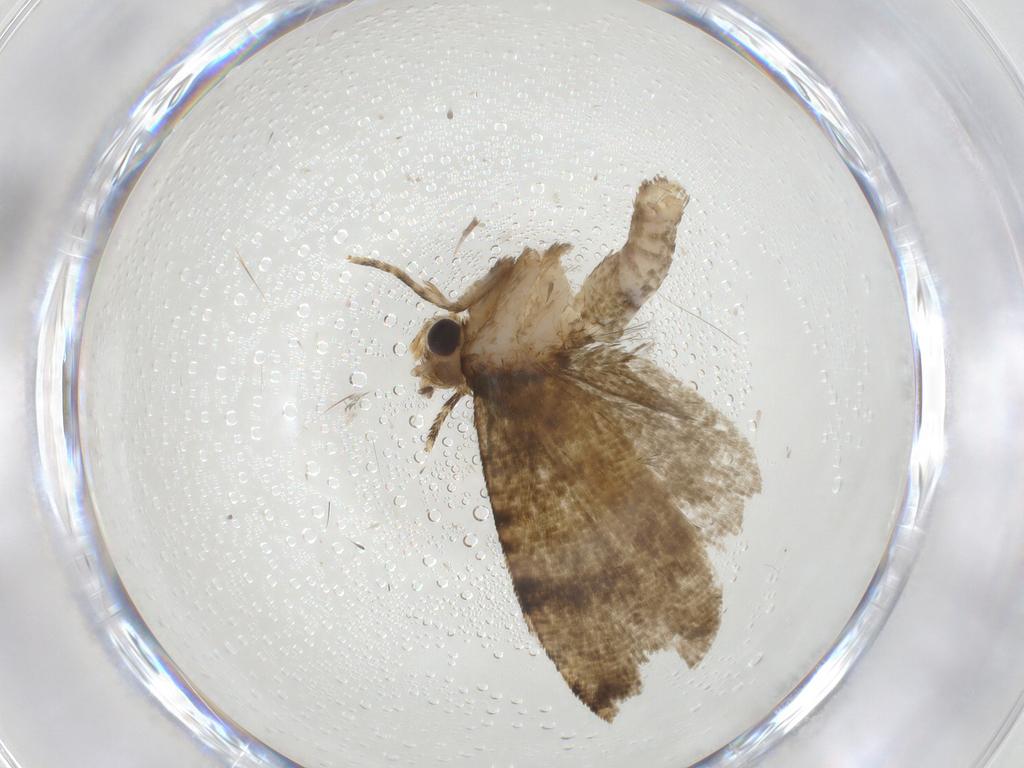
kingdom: Animalia
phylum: Arthropoda
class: Insecta
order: Lepidoptera
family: Tortricidae
